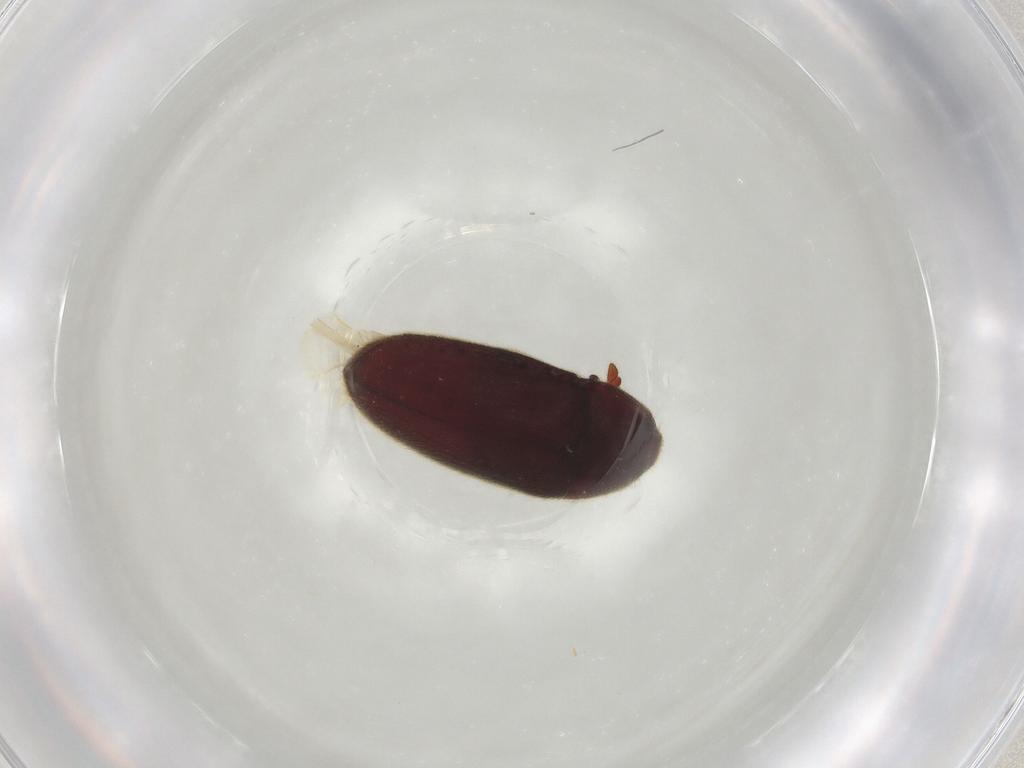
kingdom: Animalia
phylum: Arthropoda
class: Insecta
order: Coleoptera
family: Throscidae
